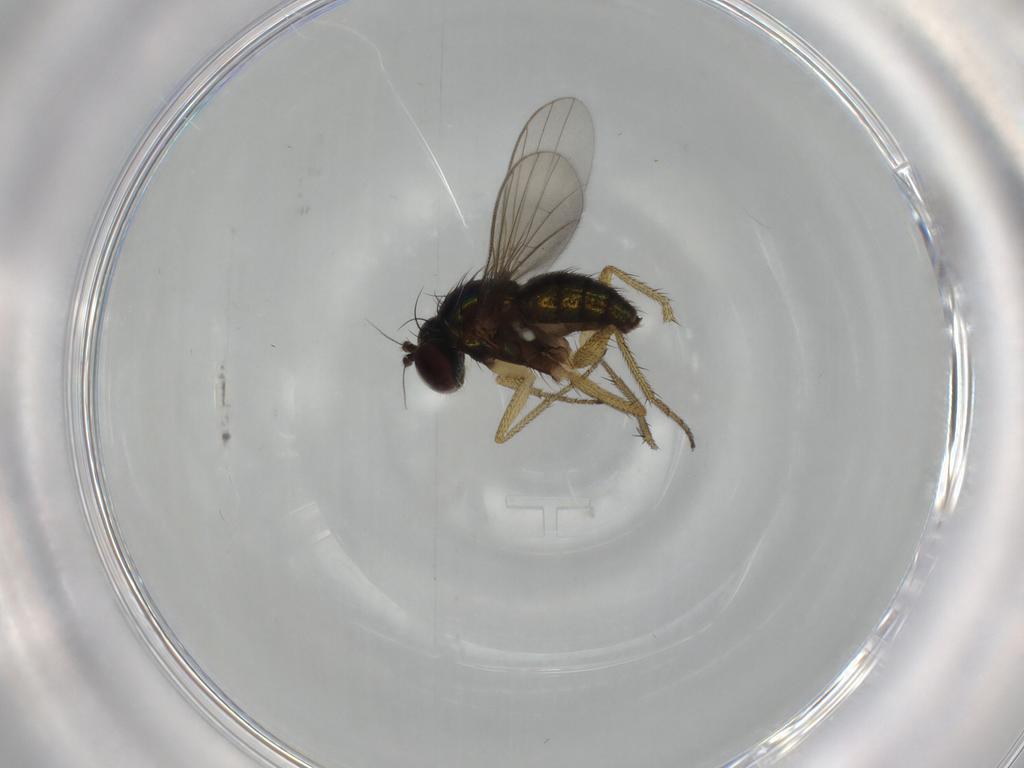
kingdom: Animalia
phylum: Arthropoda
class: Insecta
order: Diptera
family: Dolichopodidae
